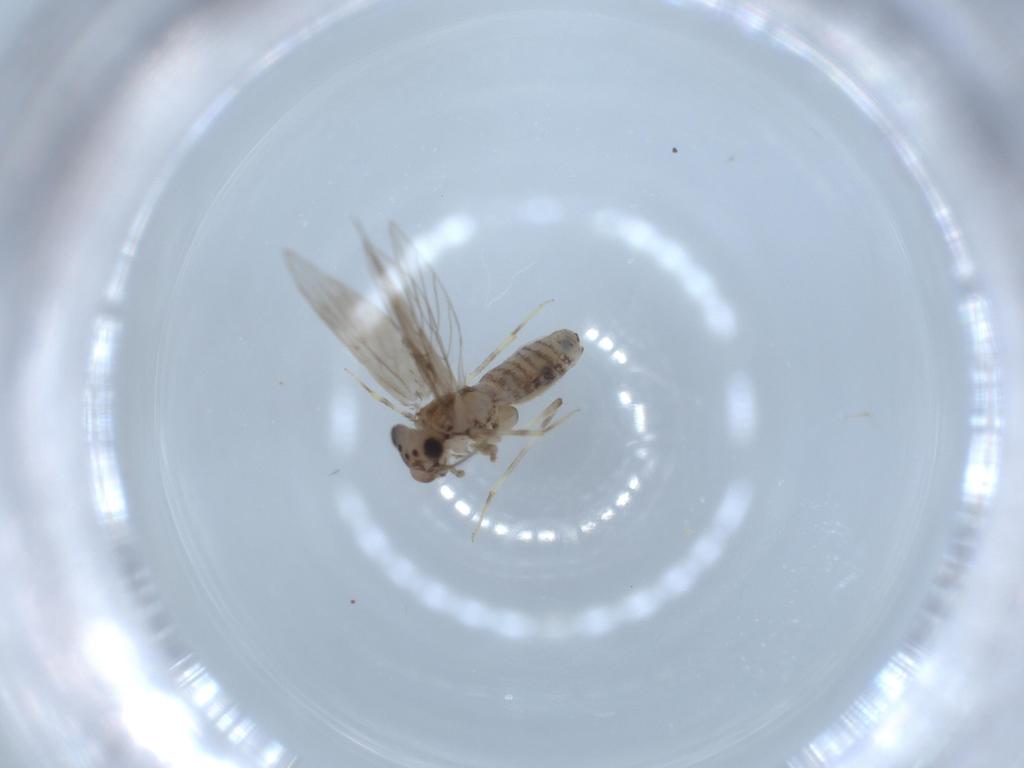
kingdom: Animalia
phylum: Arthropoda
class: Insecta
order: Psocodea
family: Lepidopsocidae
